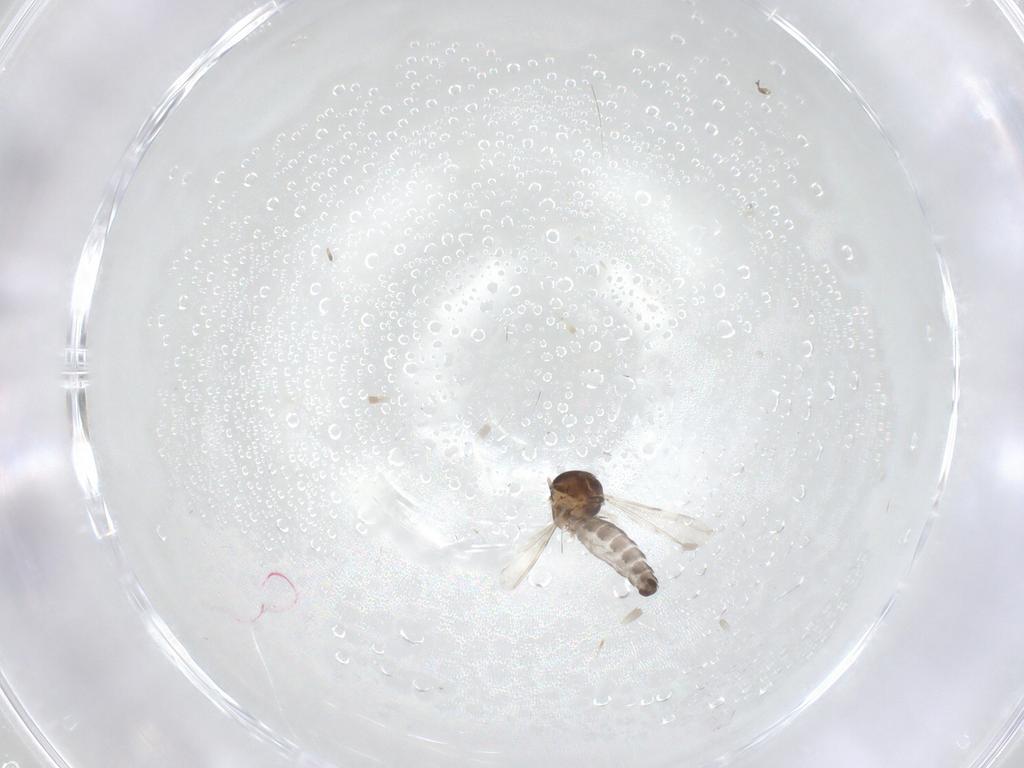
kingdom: Animalia
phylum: Arthropoda
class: Insecta
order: Diptera
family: Ceratopogonidae
